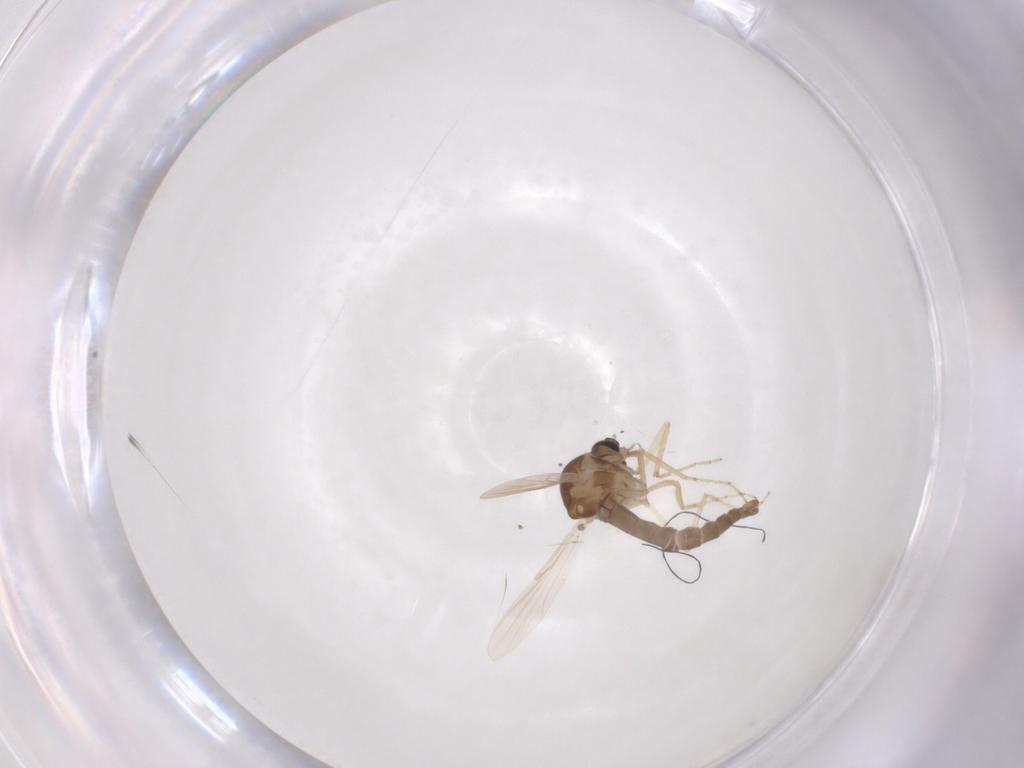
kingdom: Animalia
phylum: Arthropoda
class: Insecta
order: Diptera
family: Ceratopogonidae
